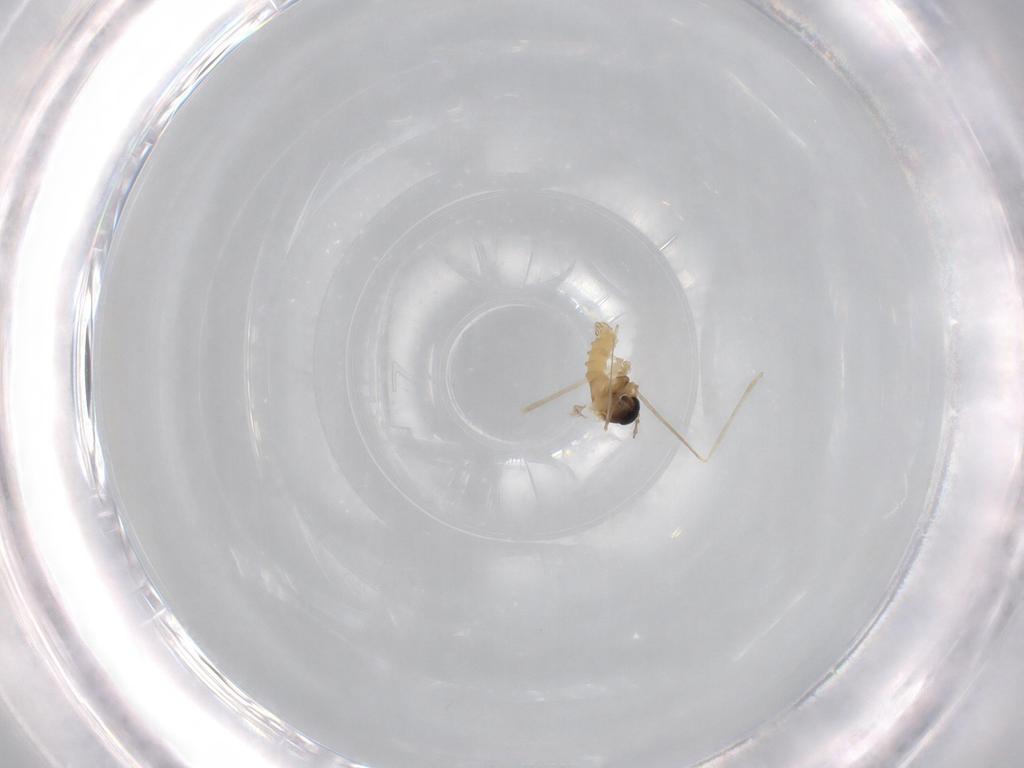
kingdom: Animalia
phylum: Arthropoda
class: Insecta
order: Diptera
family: Cecidomyiidae
